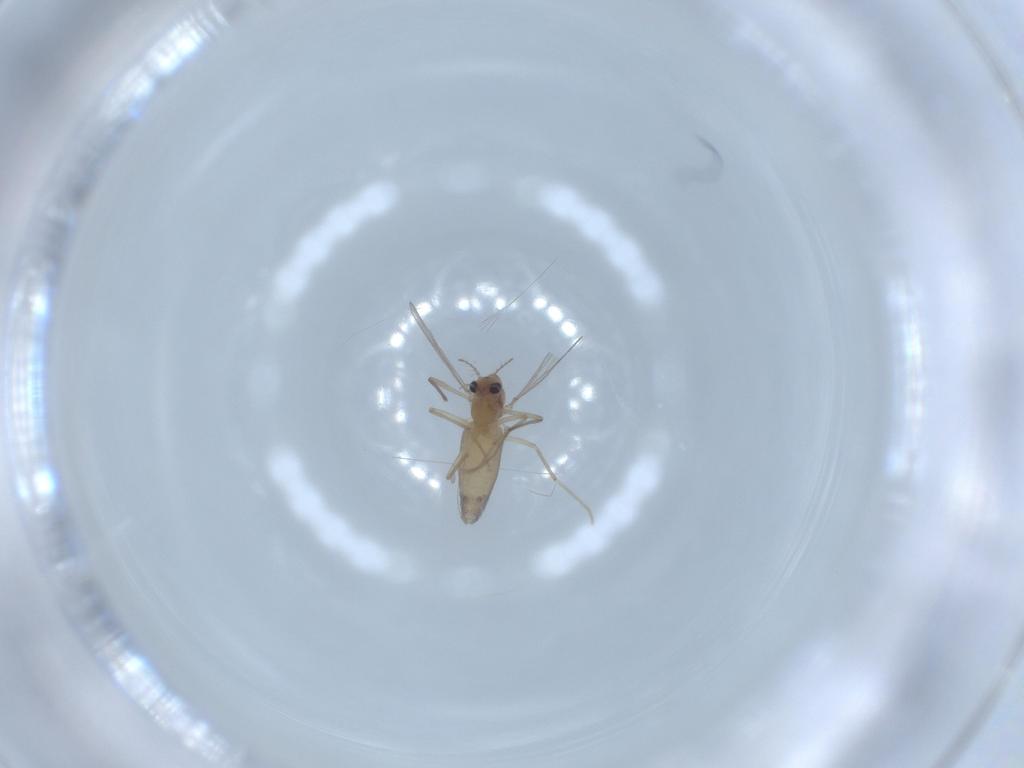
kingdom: Animalia
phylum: Arthropoda
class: Insecta
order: Diptera
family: Chironomidae
